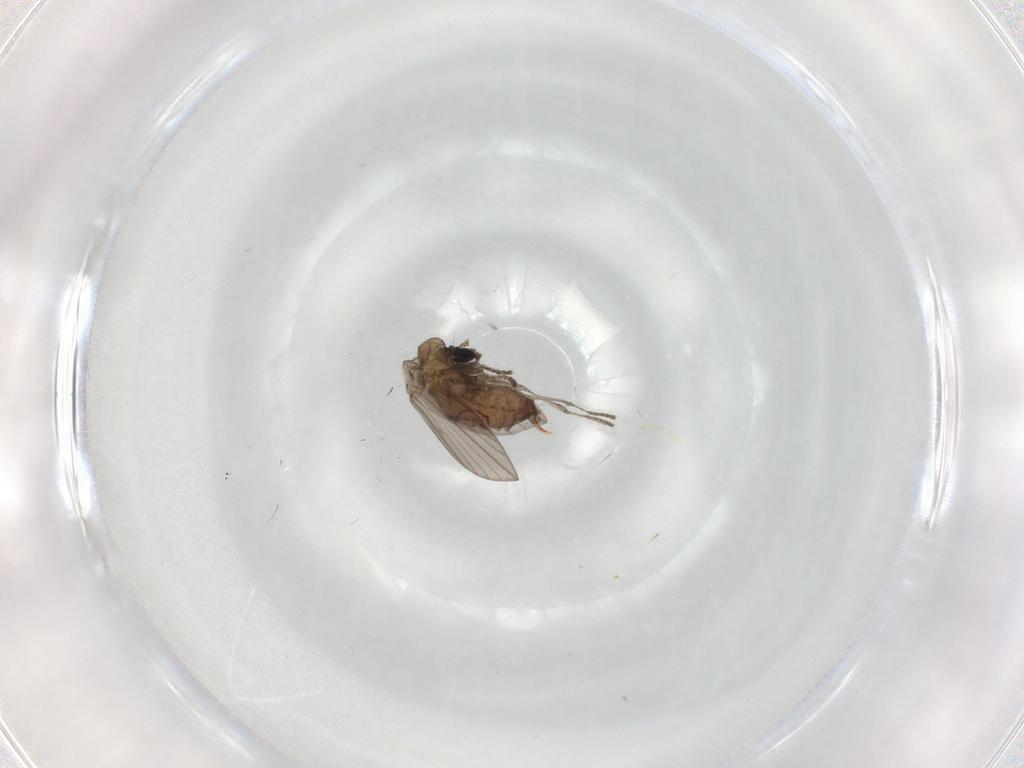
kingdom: Animalia
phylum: Arthropoda
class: Insecta
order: Diptera
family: Psychodidae
